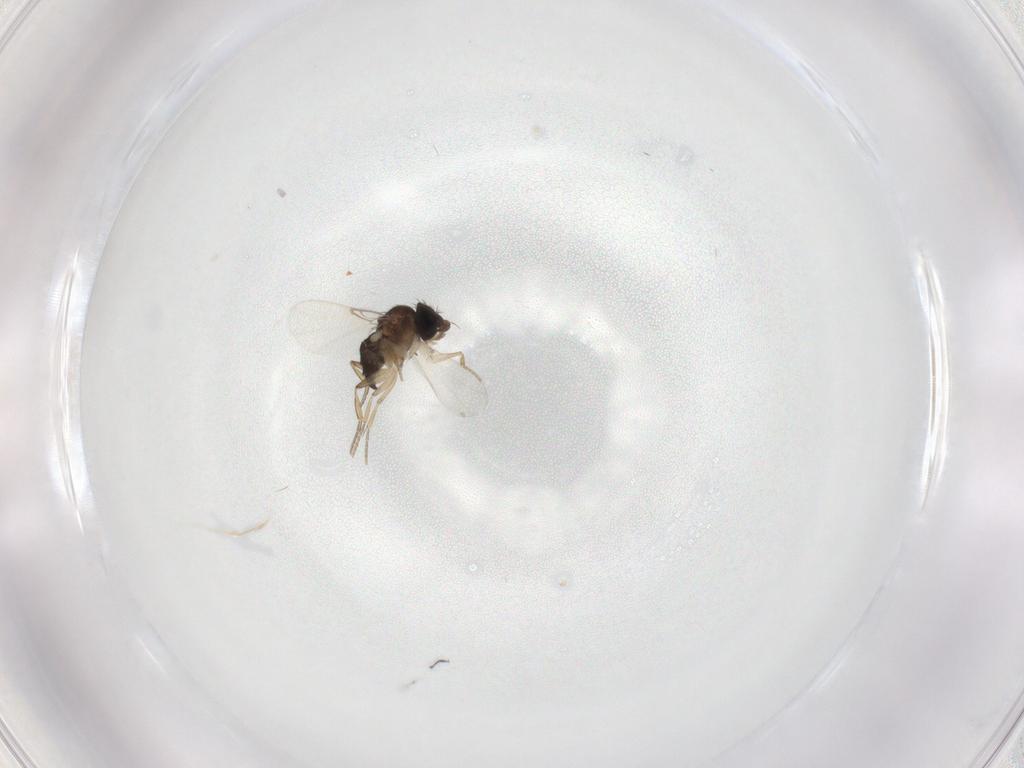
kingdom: Animalia
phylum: Arthropoda
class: Insecta
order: Diptera
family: Phoridae
